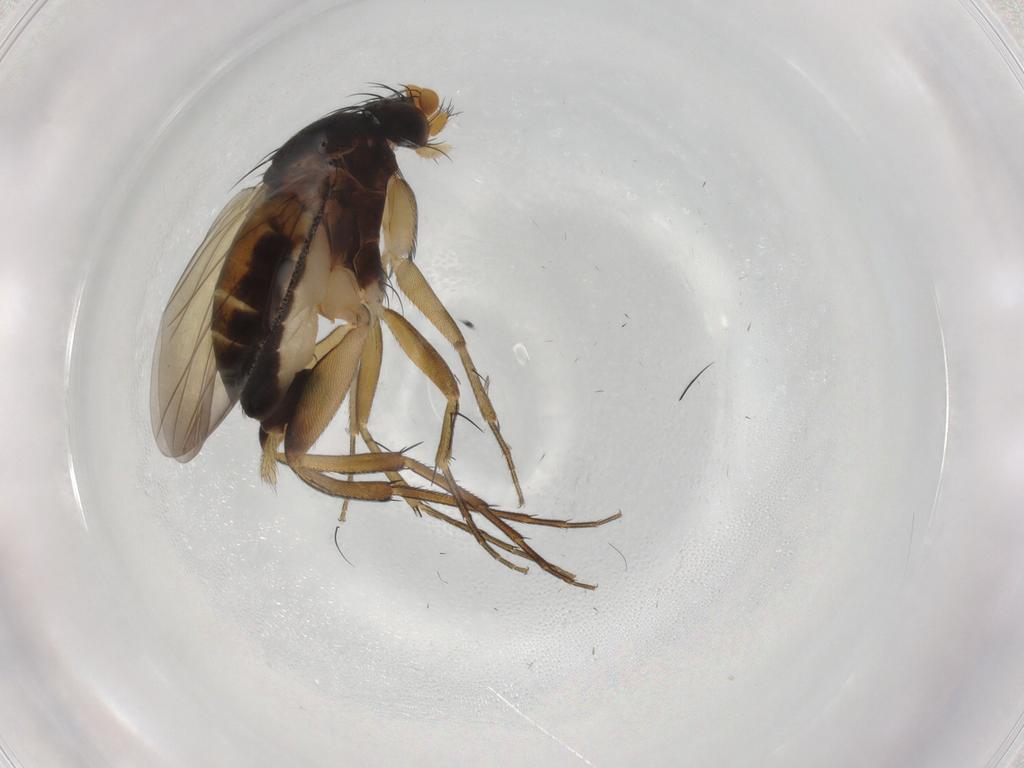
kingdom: Animalia
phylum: Arthropoda
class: Insecta
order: Diptera
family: Phoridae
